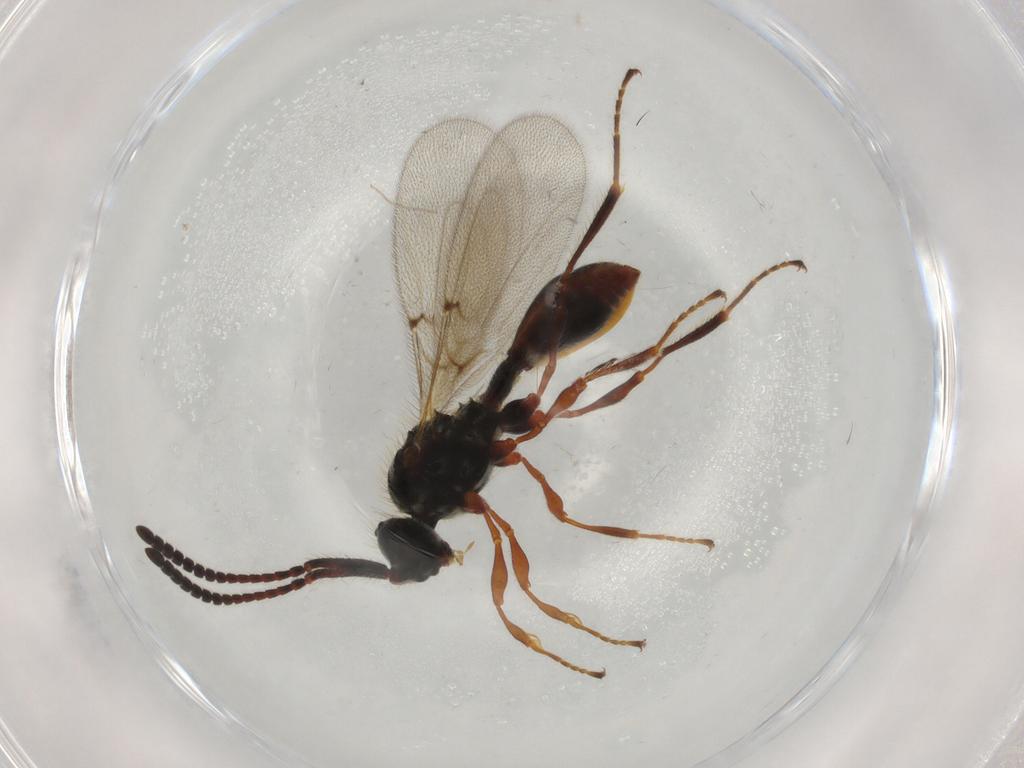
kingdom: Animalia
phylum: Arthropoda
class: Insecta
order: Hymenoptera
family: Diapriidae
